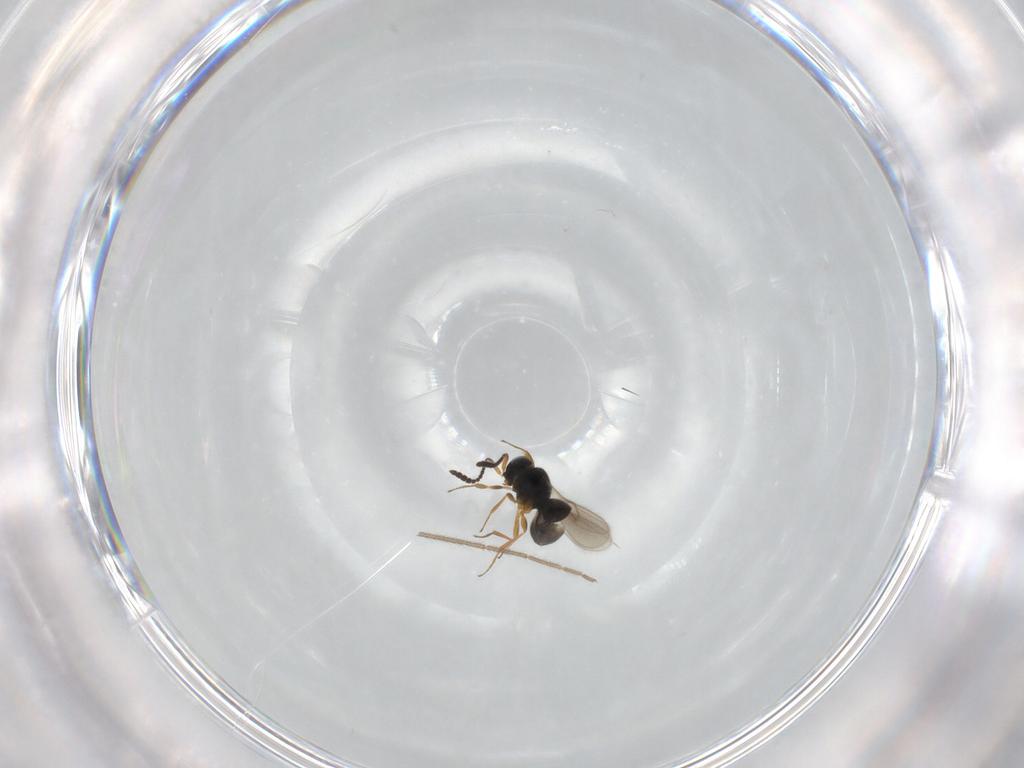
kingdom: Animalia
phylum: Arthropoda
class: Insecta
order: Hymenoptera
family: Scelionidae
